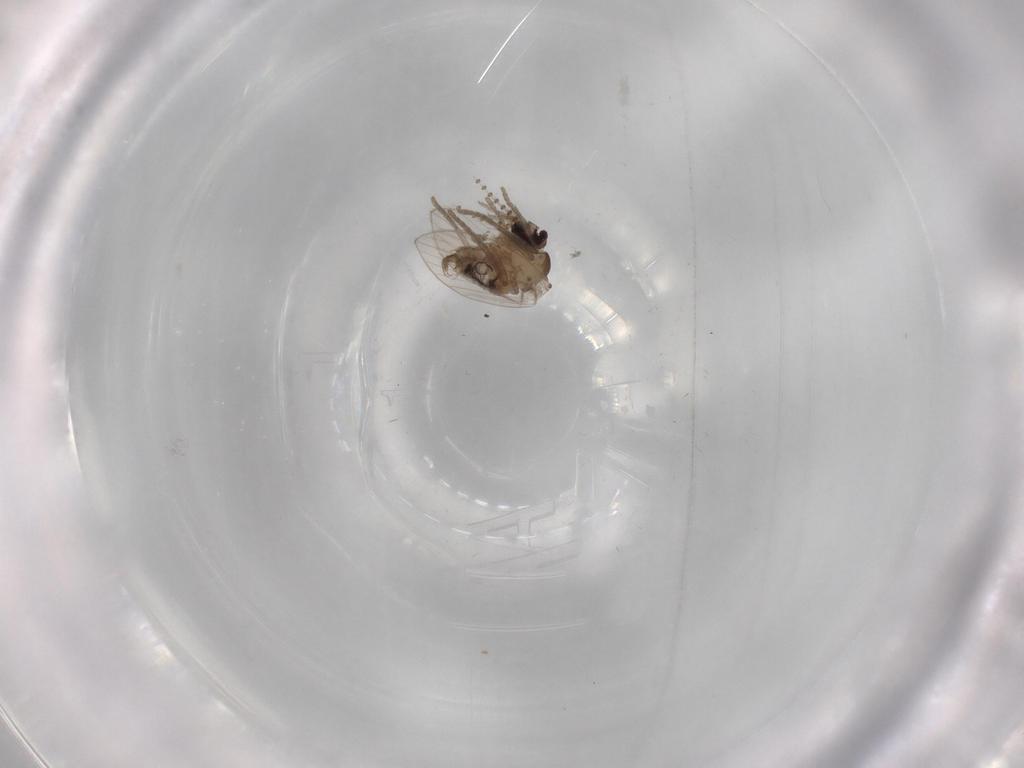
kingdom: Animalia
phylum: Arthropoda
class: Insecta
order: Diptera
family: Psychodidae
